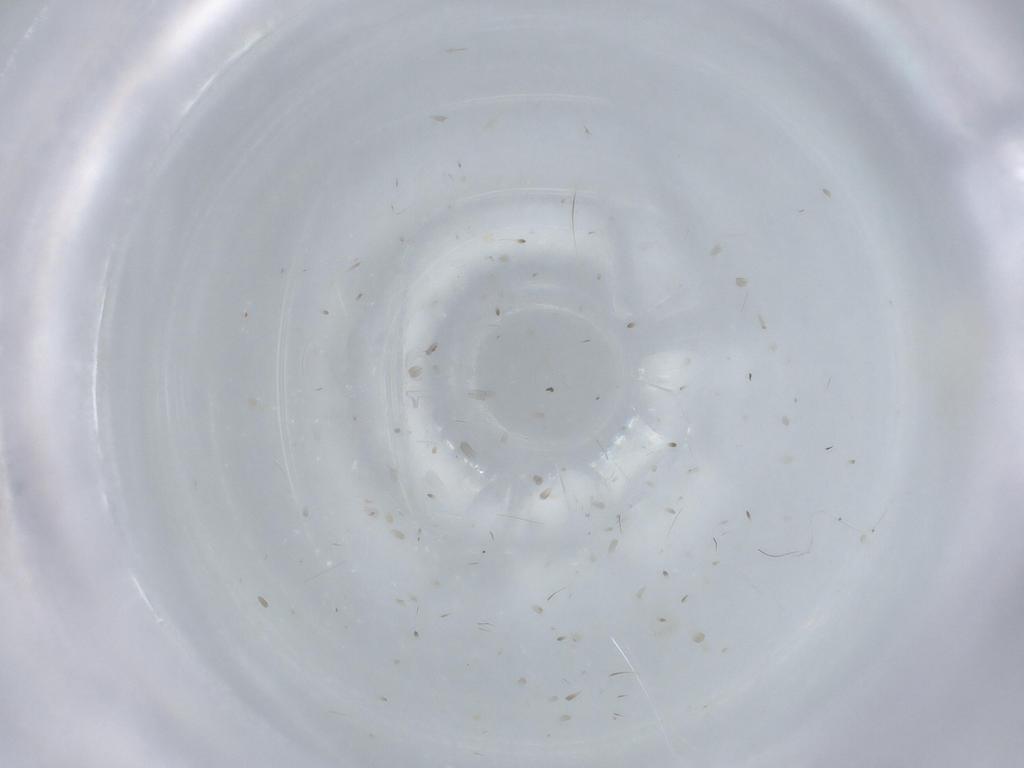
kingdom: Animalia
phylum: Arthropoda
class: Insecta
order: Diptera
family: Cecidomyiidae
